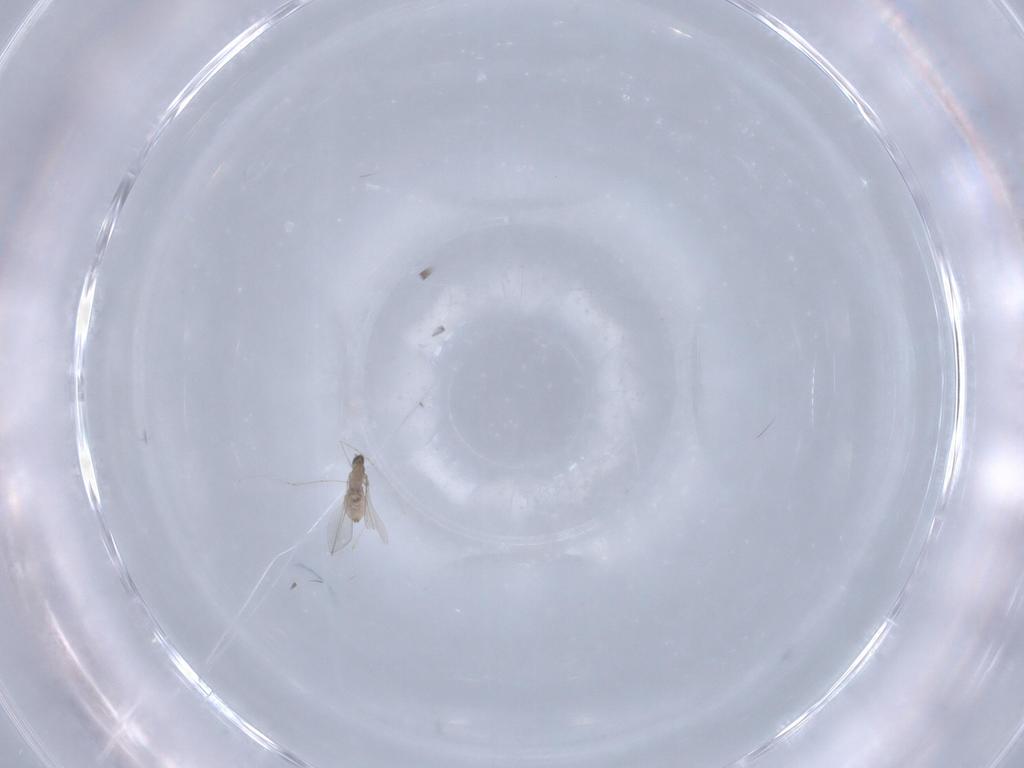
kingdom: Animalia
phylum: Arthropoda
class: Insecta
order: Diptera
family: Cecidomyiidae
